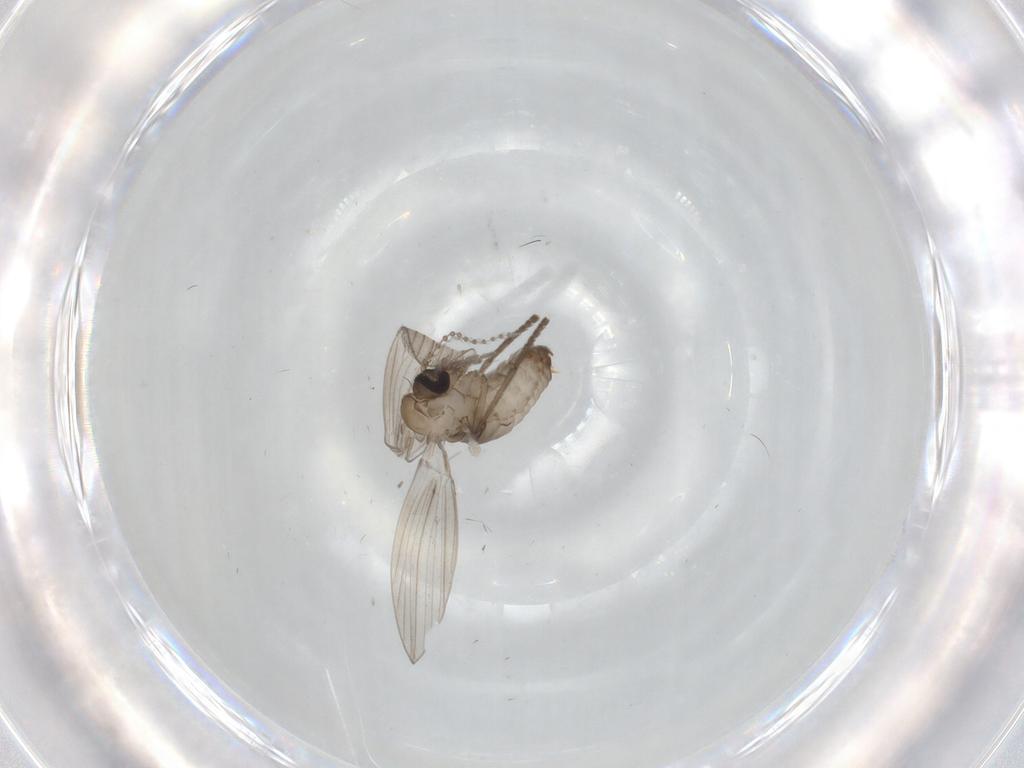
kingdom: Animalia
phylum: Arthropoda
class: Insecta
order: Diptera
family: Psychodidae
